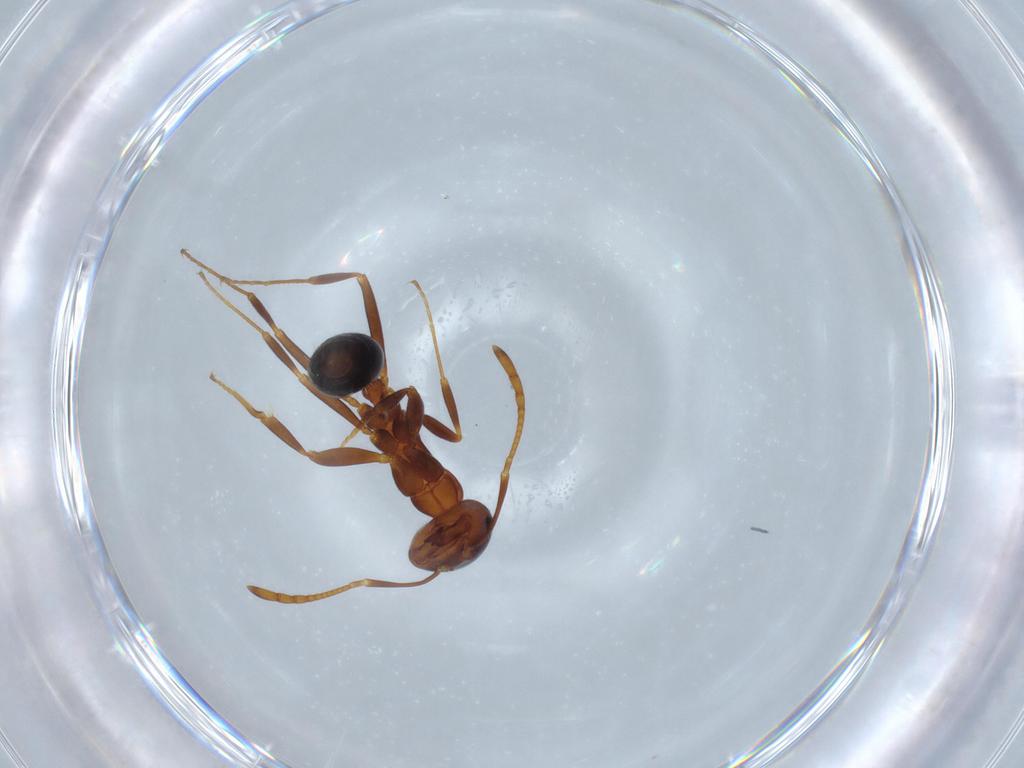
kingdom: Animalia
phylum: Arthropoda
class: Insecta
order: Hymenoptera
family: Formicidae
